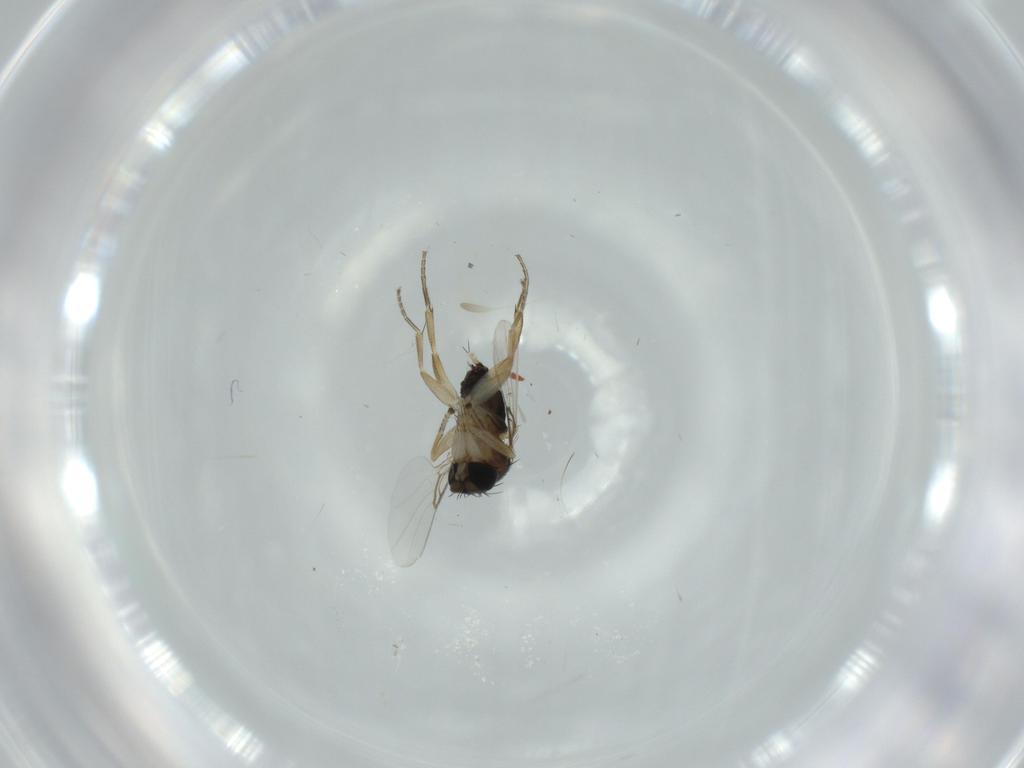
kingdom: Animalia
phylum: Arthropoda
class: Insecta
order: Diptera
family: Phoridae
